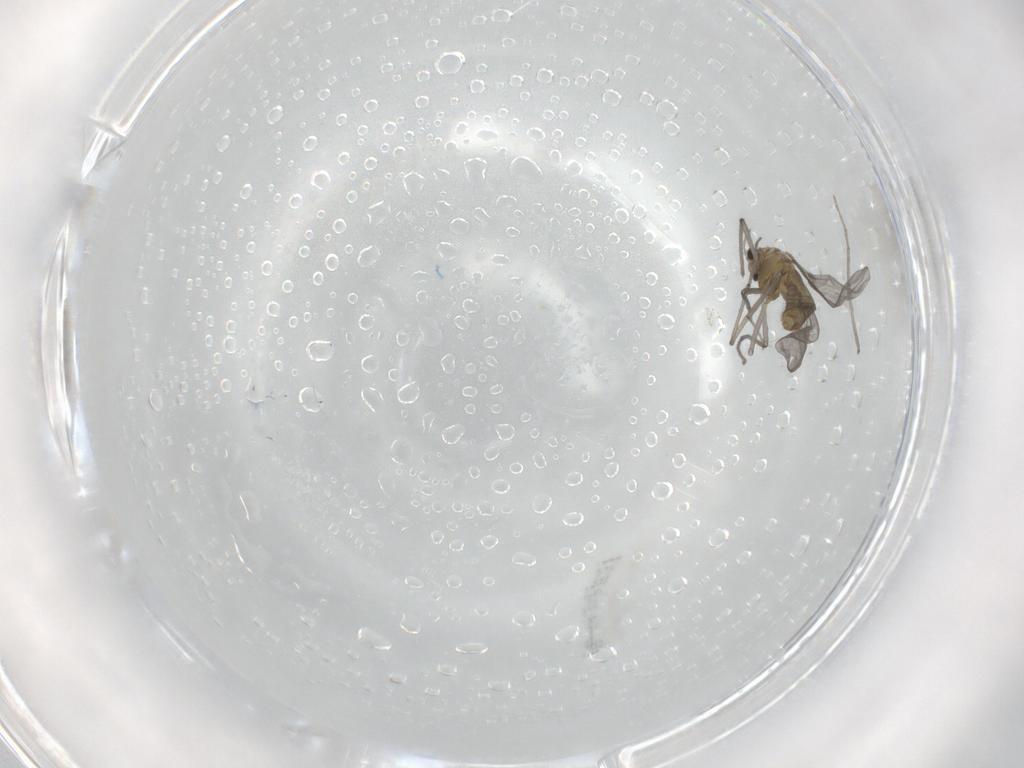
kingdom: Animalia
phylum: Arthropoda
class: Insecta
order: Diptera
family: Chironomidae
